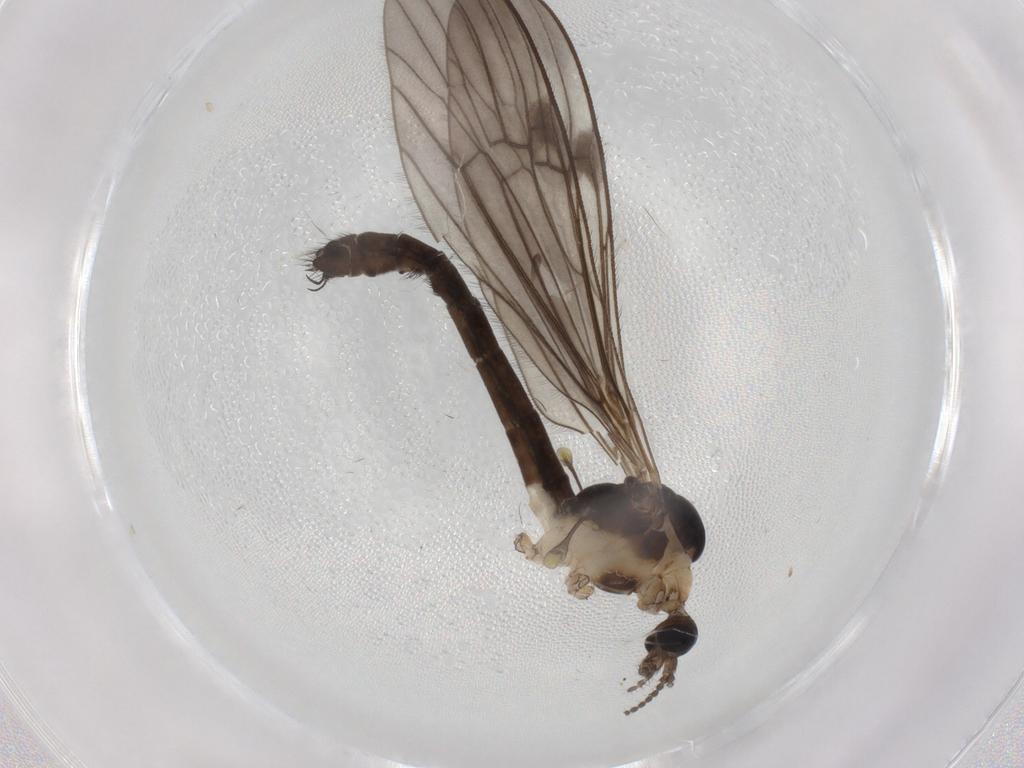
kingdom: Animalia
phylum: Arthropoda
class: Insecta
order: Diptera
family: Limoniidae
